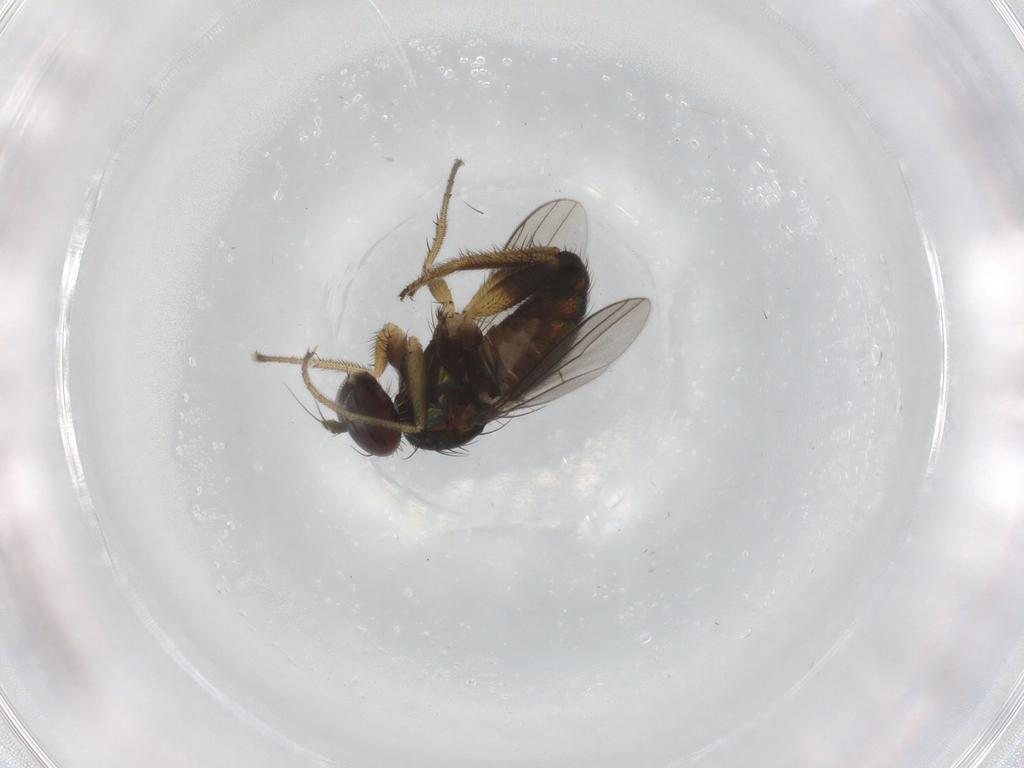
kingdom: Animalia
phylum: Arthropoda
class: Insecta
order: Diptera
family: Dolichopodidae
